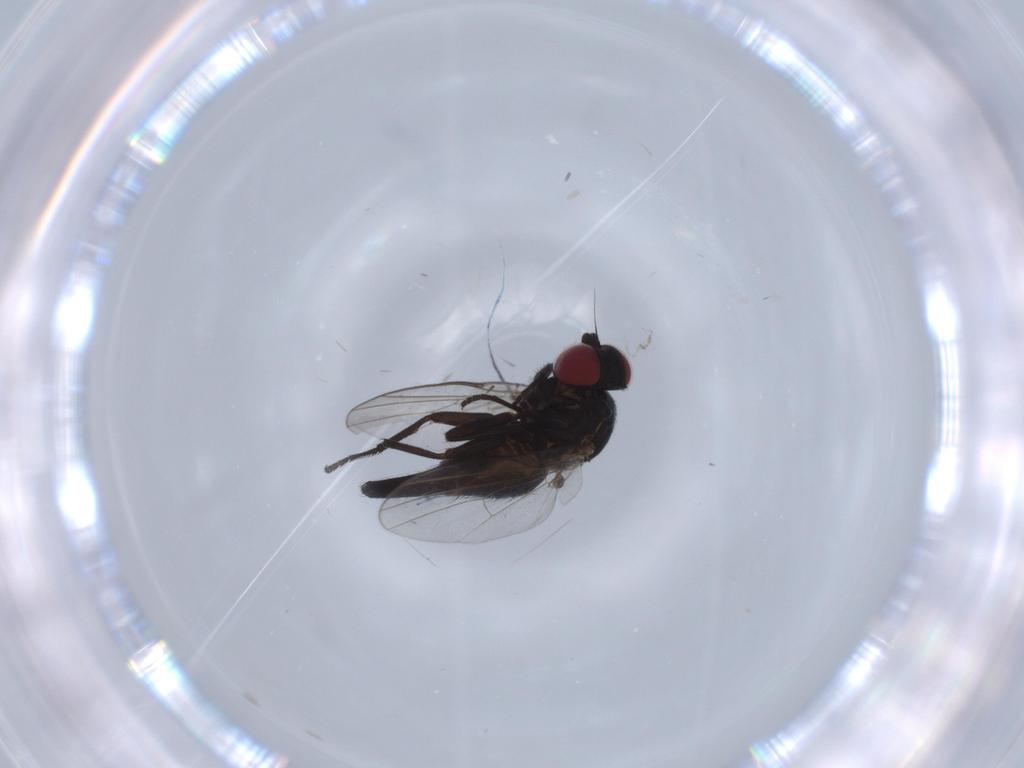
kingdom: Animalia
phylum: Arthropoda
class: Insecta
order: Diptera
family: Agromyzidae
